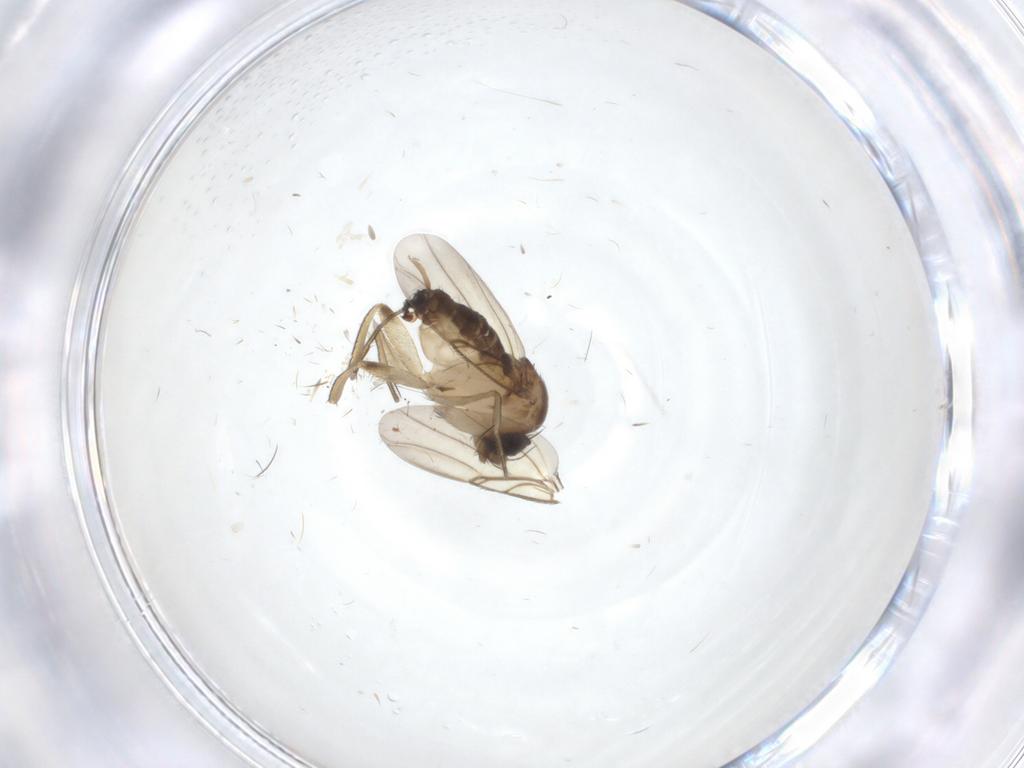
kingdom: Animalia
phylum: Arthropoda
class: Insecta
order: Diptera
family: Phoridae
